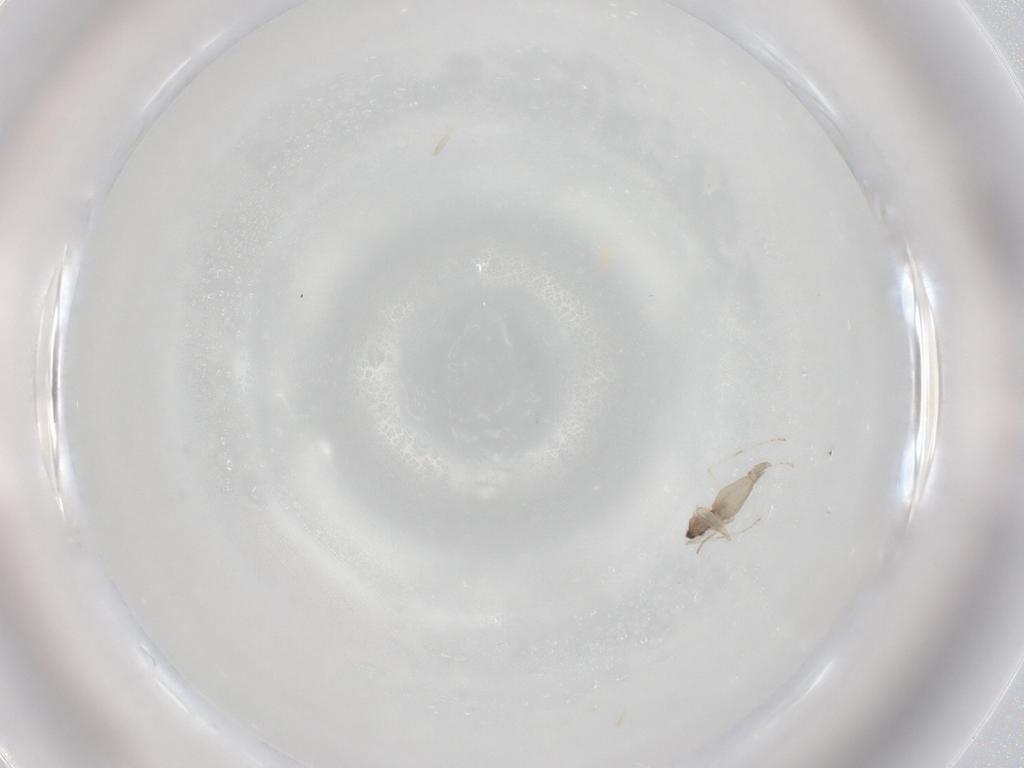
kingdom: Animalia
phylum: Arthropoda
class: Insecta
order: Diptera
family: Cecidomyiidae
